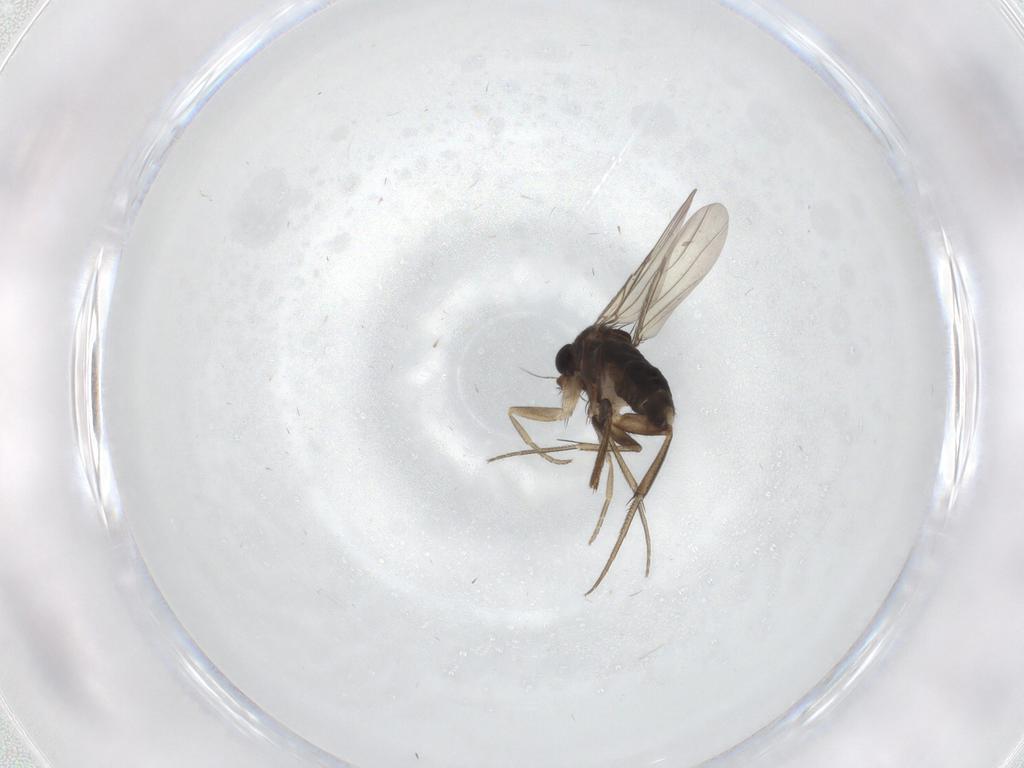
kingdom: Animalia
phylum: Arthropoda
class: Insecta
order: Diptera
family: Phoridae
